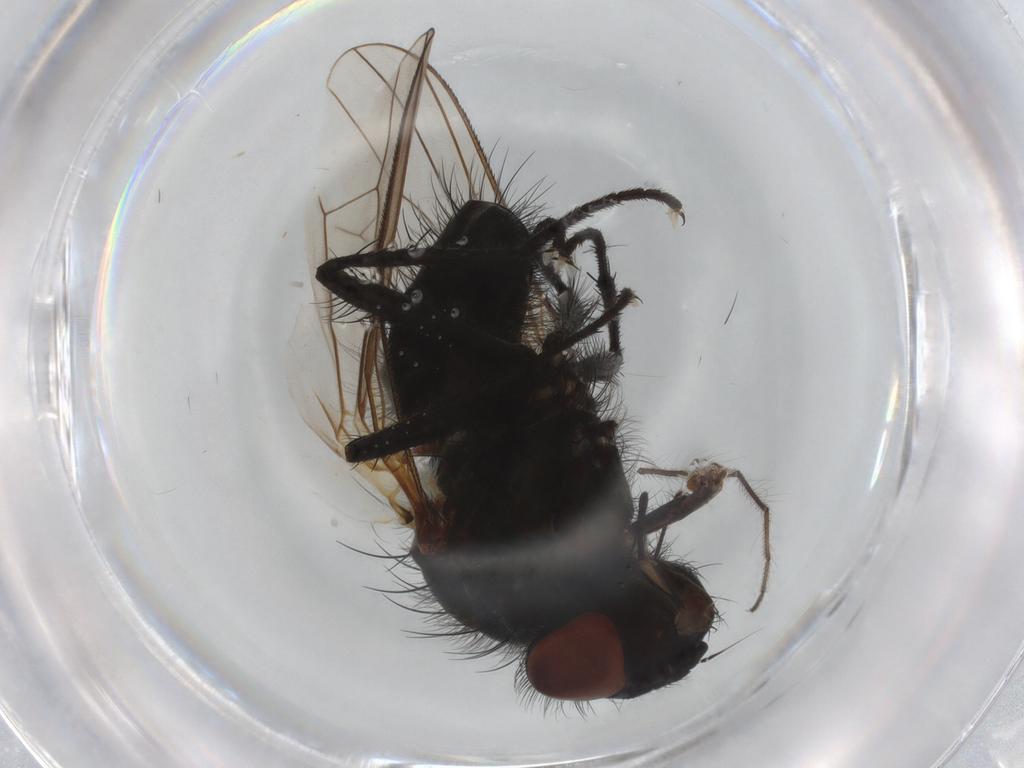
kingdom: Animalia
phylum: Arthropoda
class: Insecta
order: Diptera
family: Anthomyiidae
